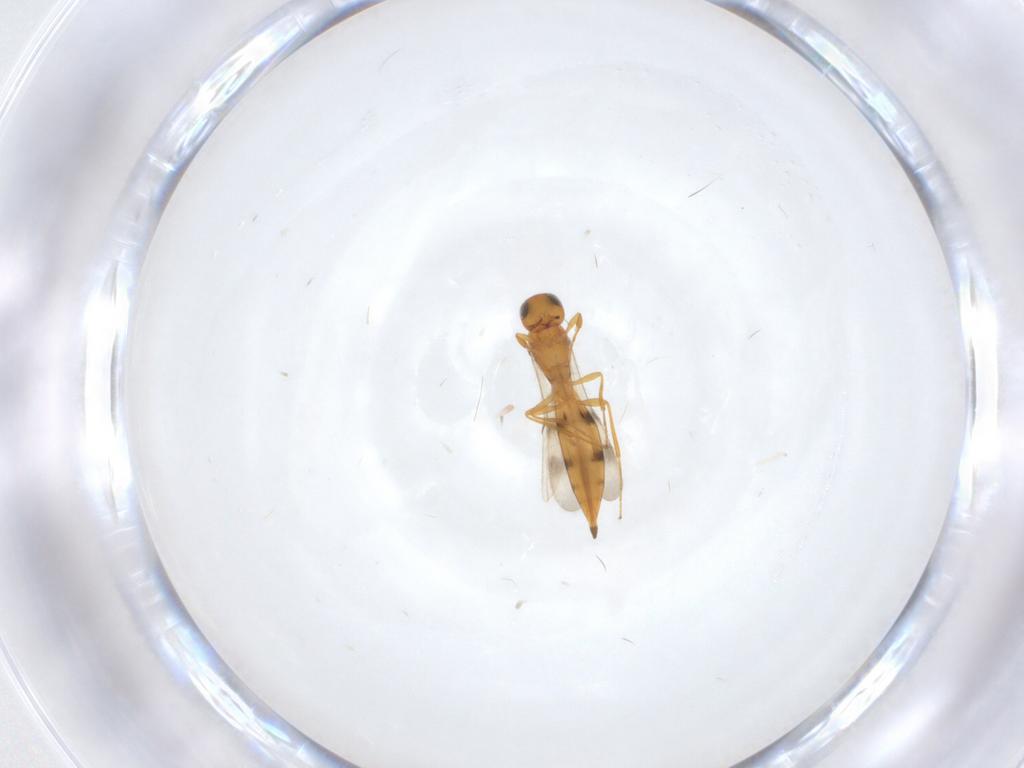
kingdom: Animalia
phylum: Arthropoda
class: Insecta
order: Hymenoptera
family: Scelionidae
